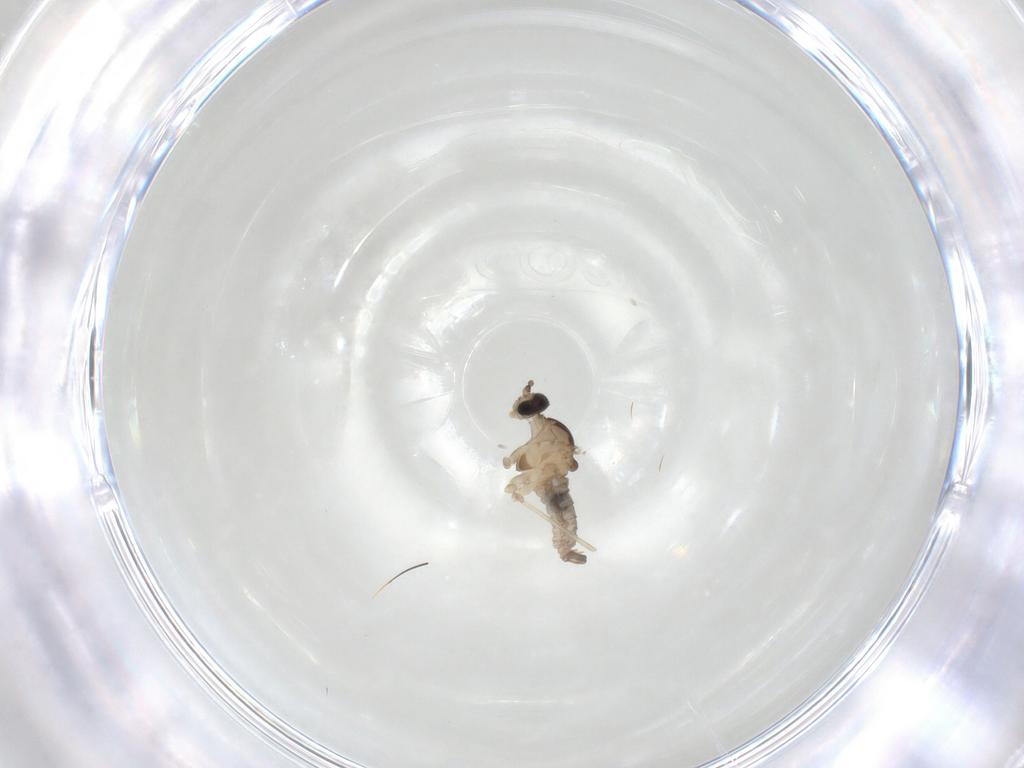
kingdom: Animalia
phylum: Arthropoda
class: Insecta
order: Diptera
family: Cecidomyiidae
